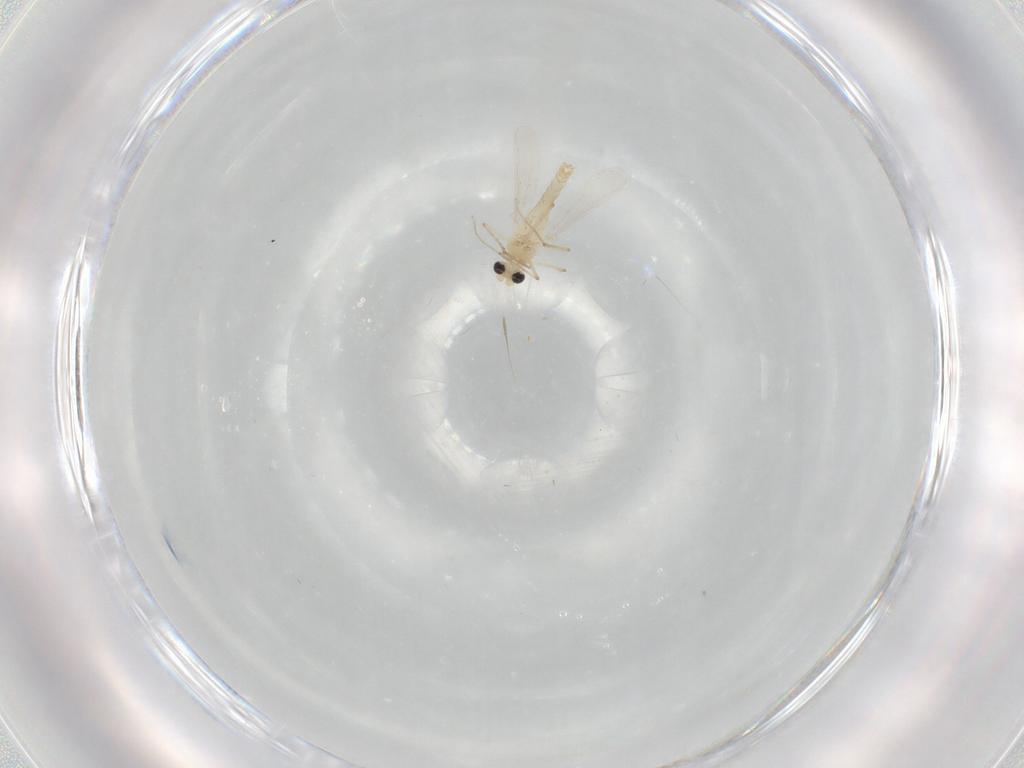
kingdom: Animalia
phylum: Arthropoda
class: Insecta
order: Diptera
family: Chironomidae
